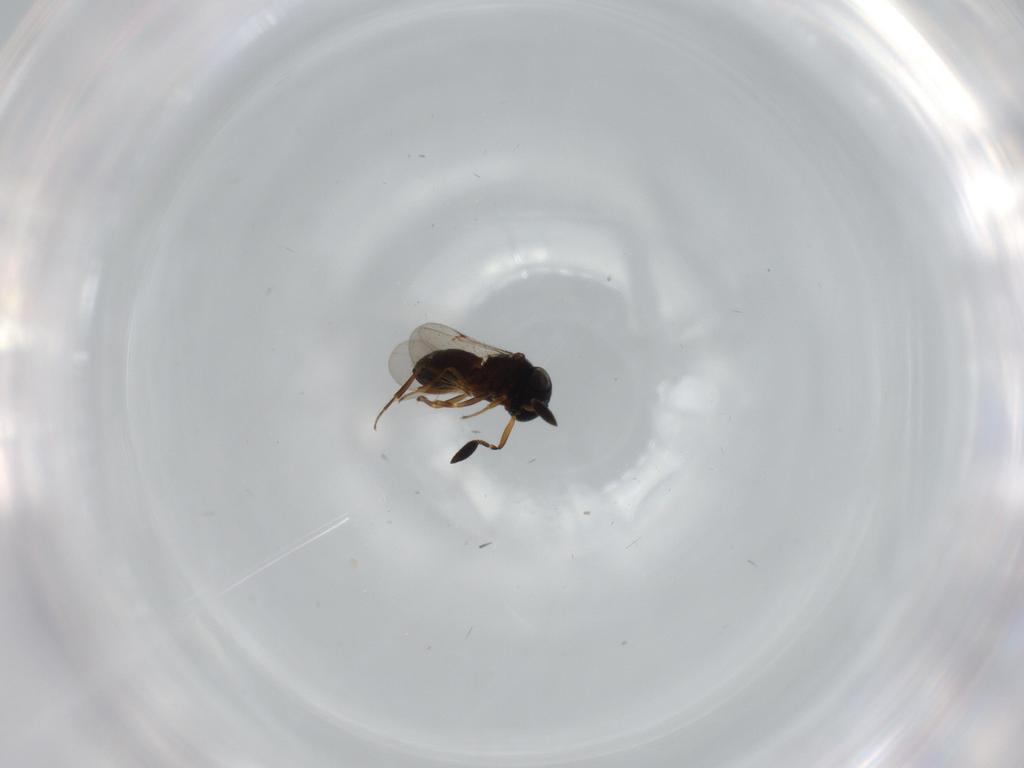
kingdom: Animalia
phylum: Arthropoda
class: Insecta
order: Hymenoptera
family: Scelionidae
